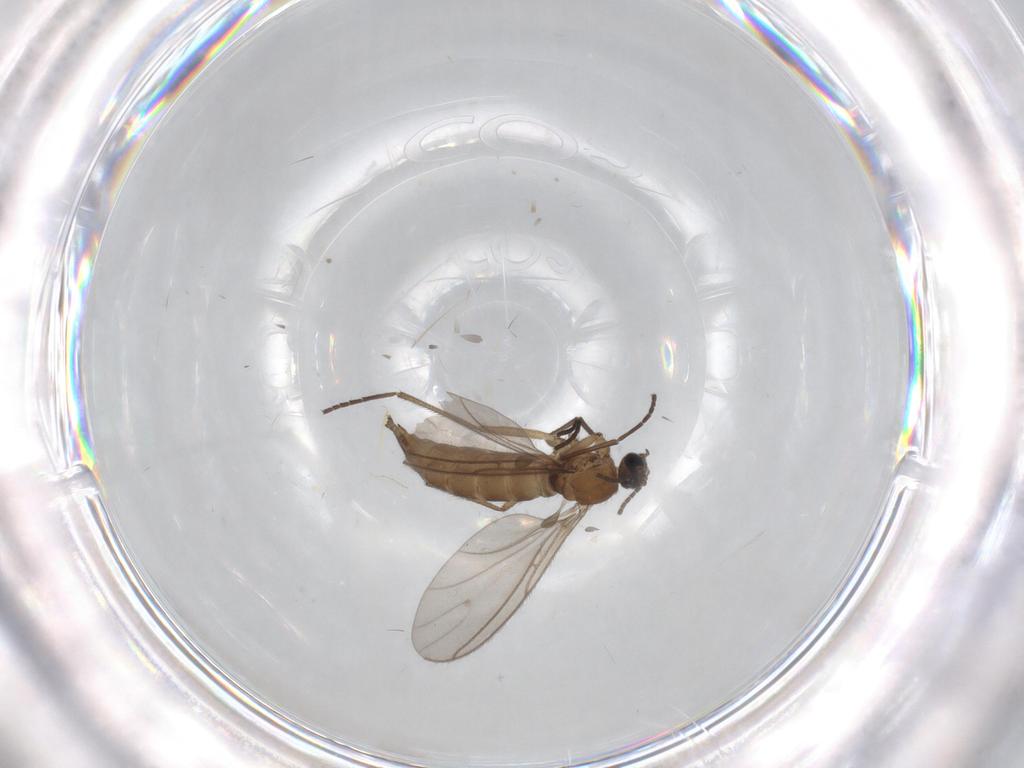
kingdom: Animalia
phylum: Arthropoda
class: Insecta
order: Diptera
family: Sciaridae
